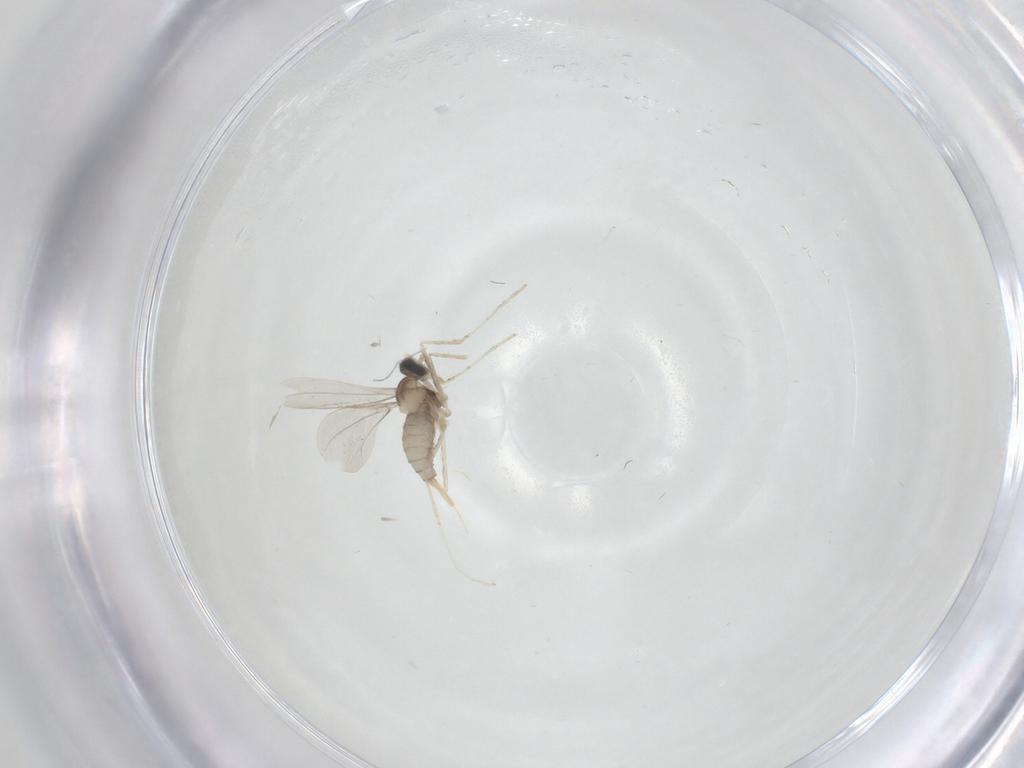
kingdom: Animalia
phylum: Arthropoda
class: Insecta
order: Diptera
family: Cecidomyiidae
